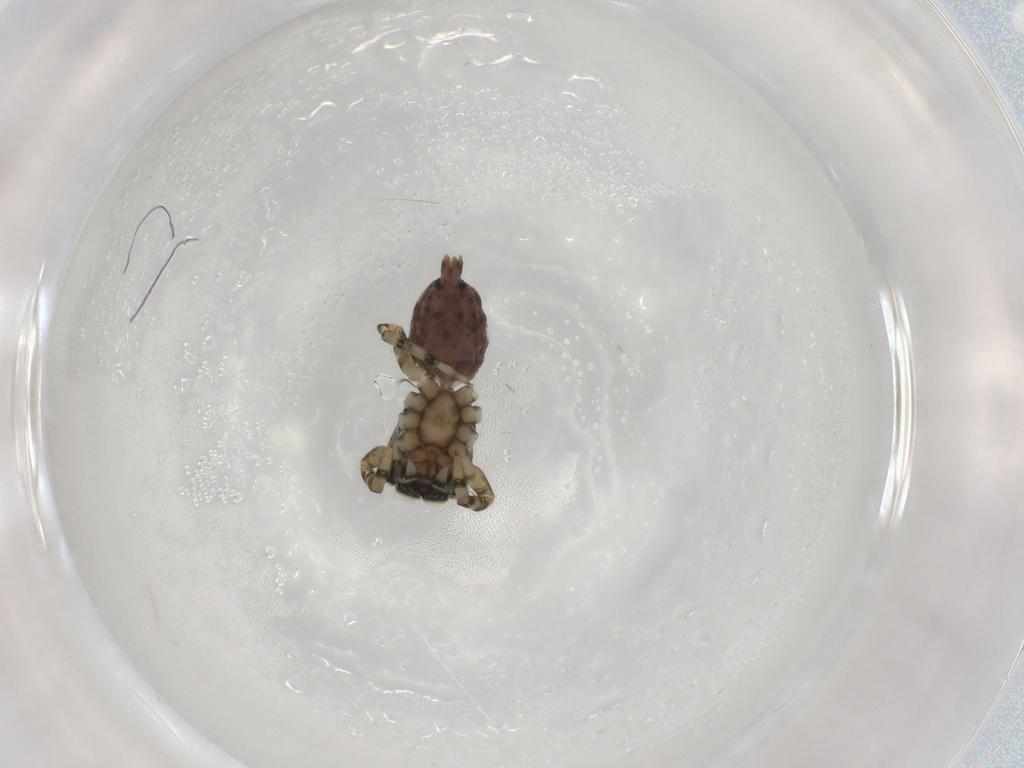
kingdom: Animalia
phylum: Arthropoda
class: Arachnida
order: Araneae
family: Salticidae
